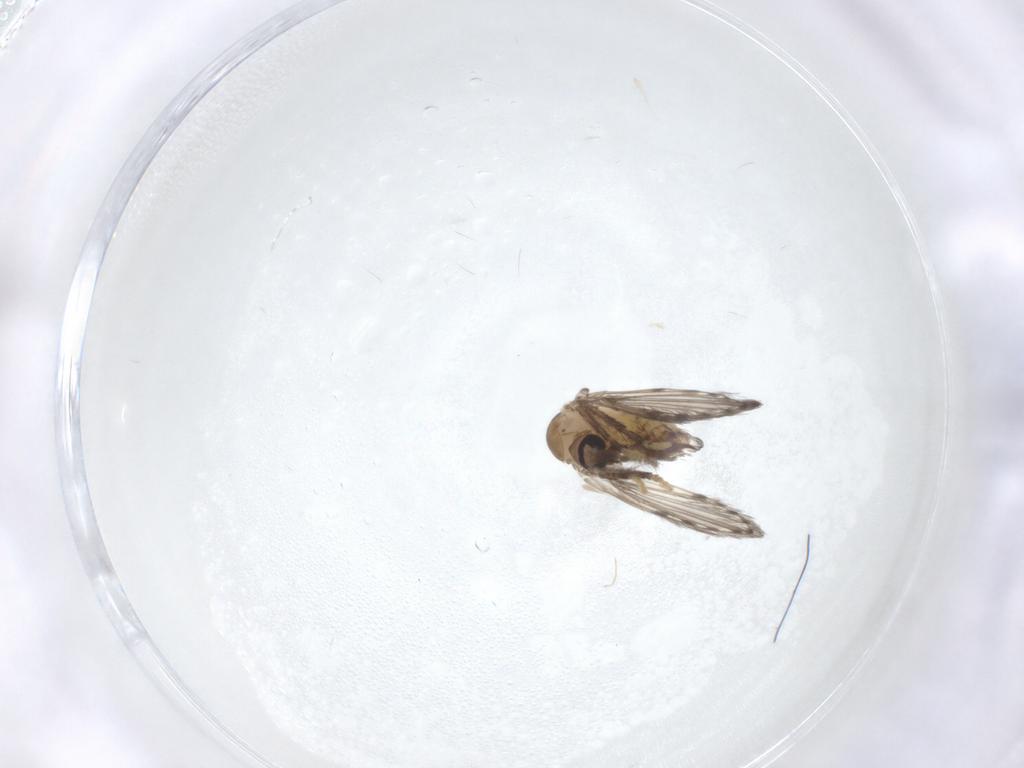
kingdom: Animalia
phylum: Arthropoda
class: Insecta
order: Diptera
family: Psychodidae
